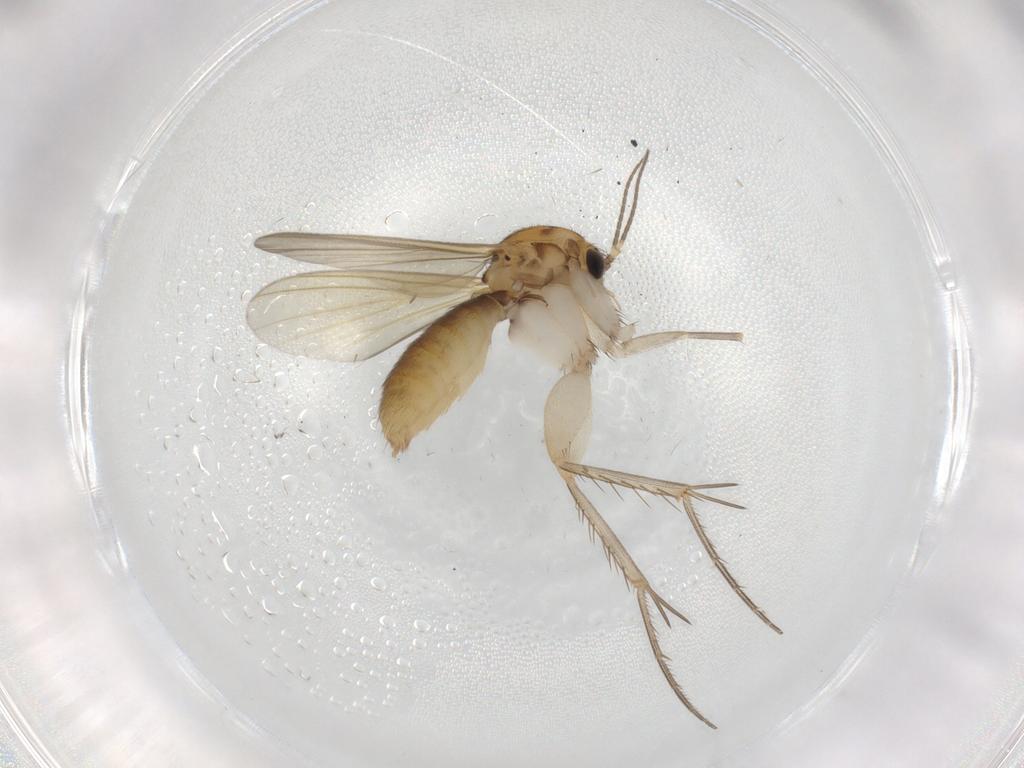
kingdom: Animalia
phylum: Arthropoda
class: Insecta
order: Diptera
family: Mycetophilidae
